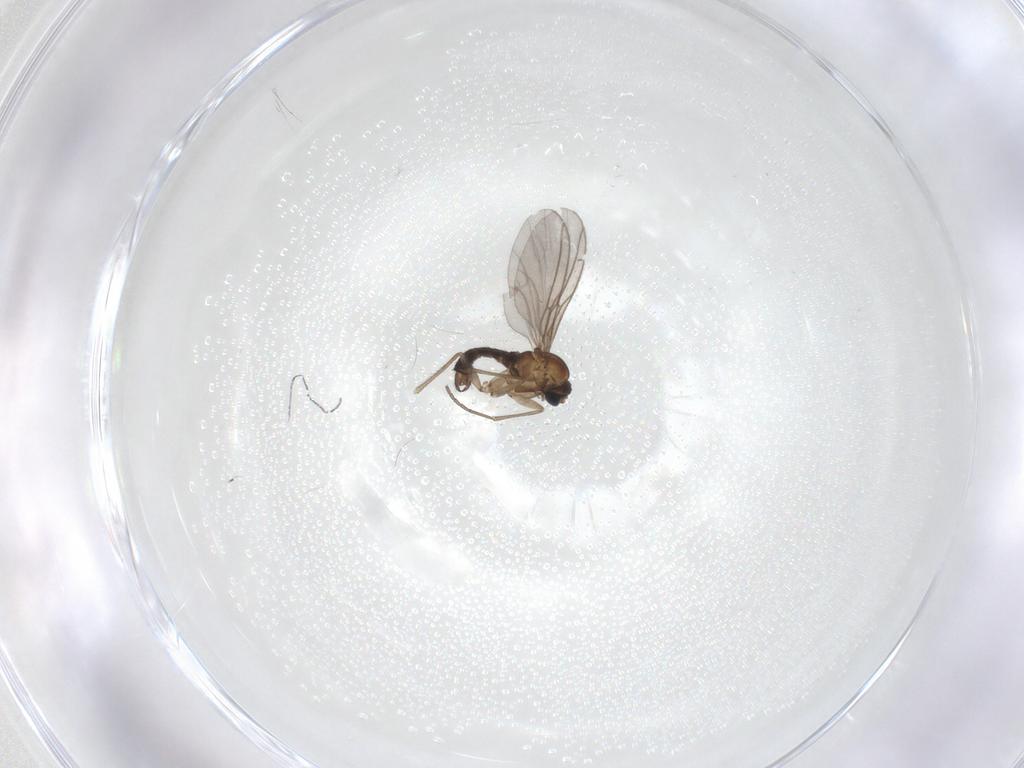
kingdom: Animalia
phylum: Arthropoda
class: Insecta
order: Diptera
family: Sciaridae
